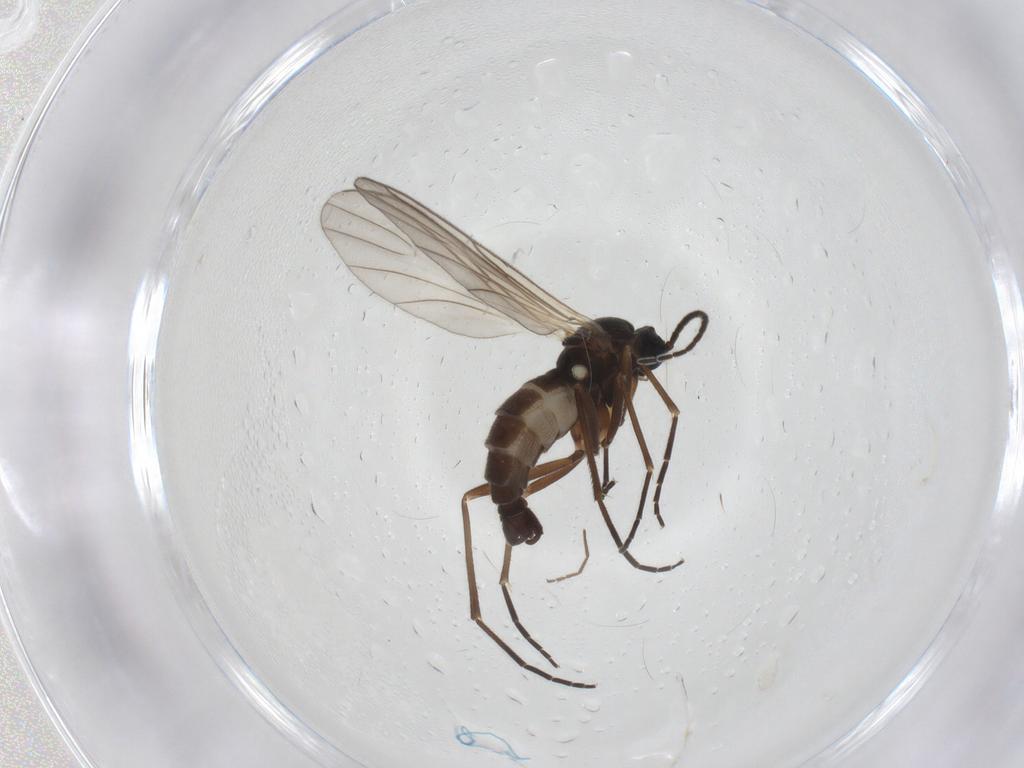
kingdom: Animalia
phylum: Arthropoda
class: Insecta
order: Diptera
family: Sciaridae
